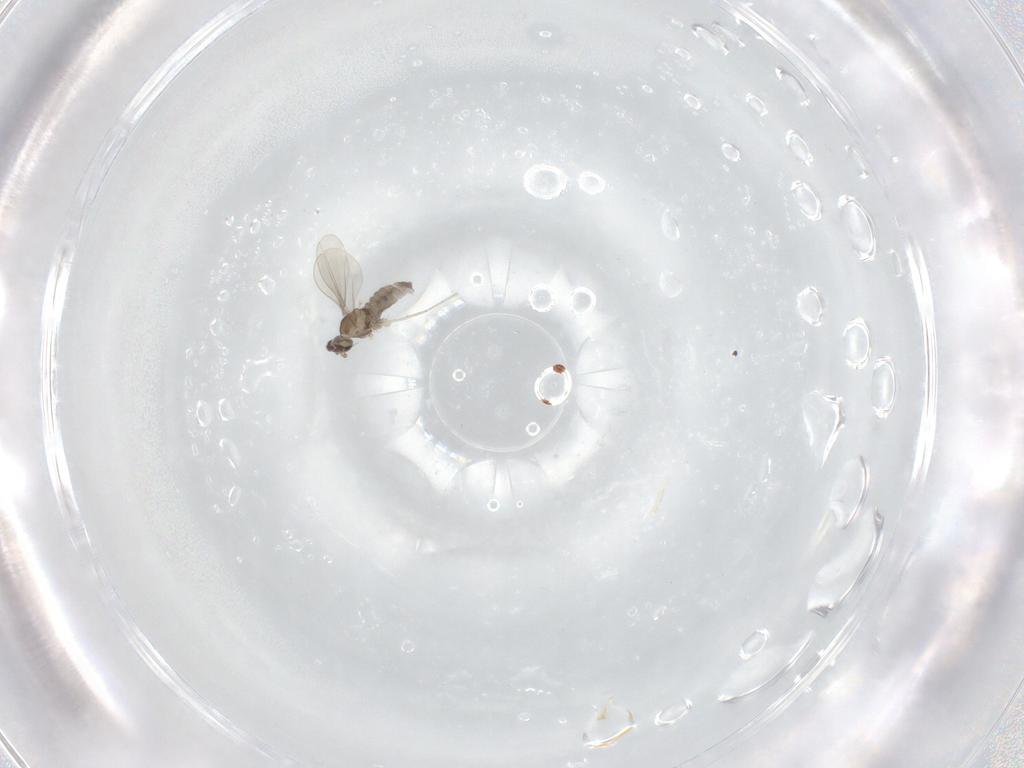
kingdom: Animalia
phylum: Arthropoda
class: Insecta
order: Diptera
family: Cecidomyiidae
